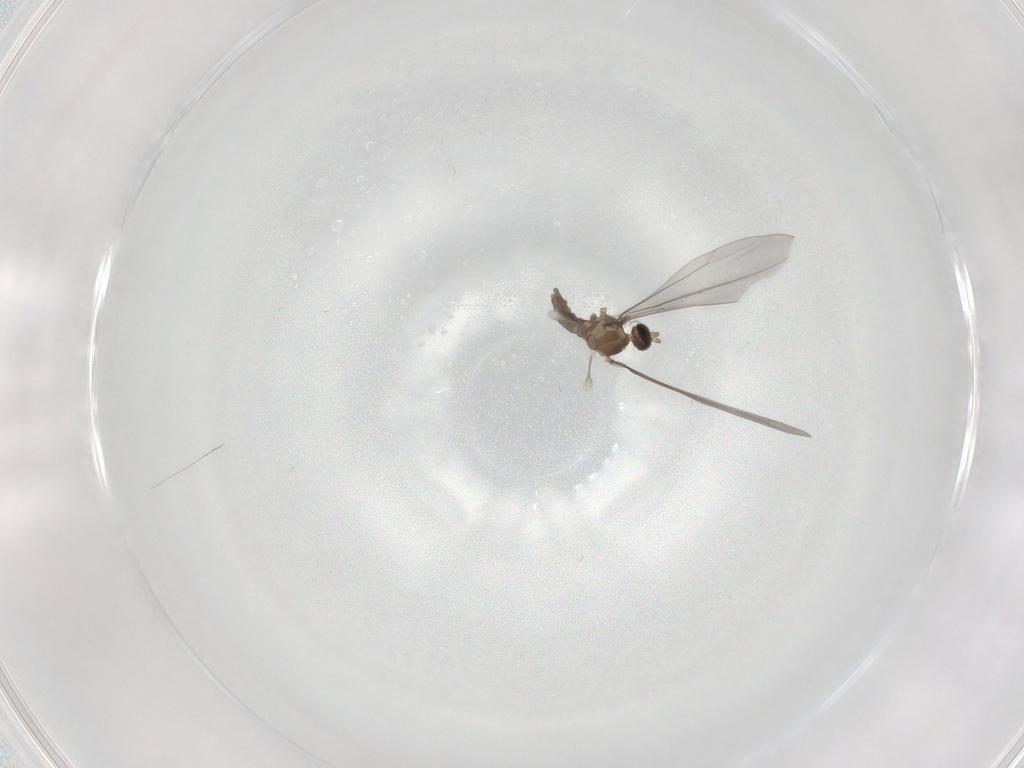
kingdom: Animalia
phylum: Arthropoda
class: Insecta
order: Diptera
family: Cecidomyiidae
